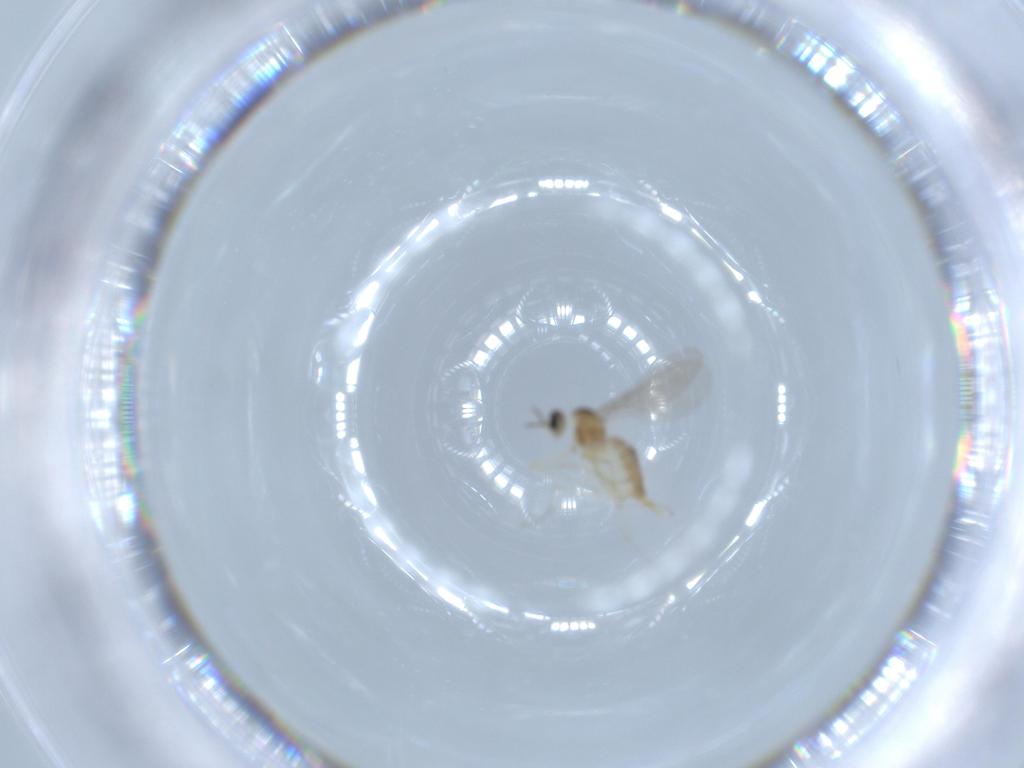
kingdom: Animalia
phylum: Arthropoda
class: Insecta
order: Diptera
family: Cecidomyiidae
